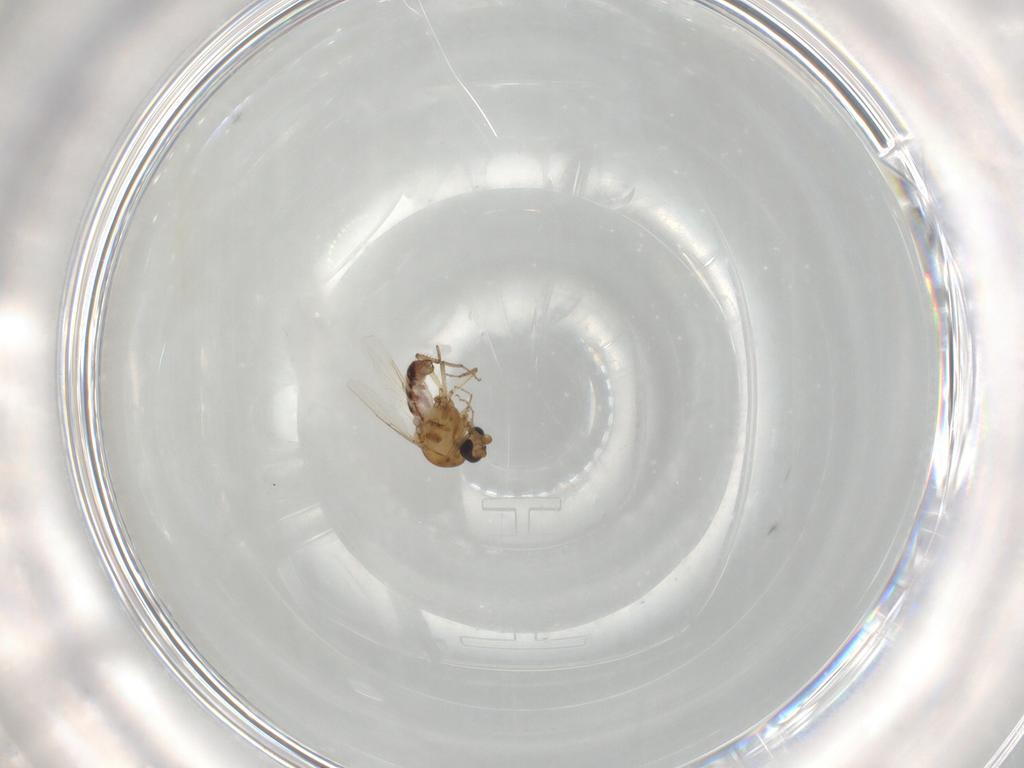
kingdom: Animalia
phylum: Arthropoda
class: Insecta
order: Diptera
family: Ceratopogonidae
